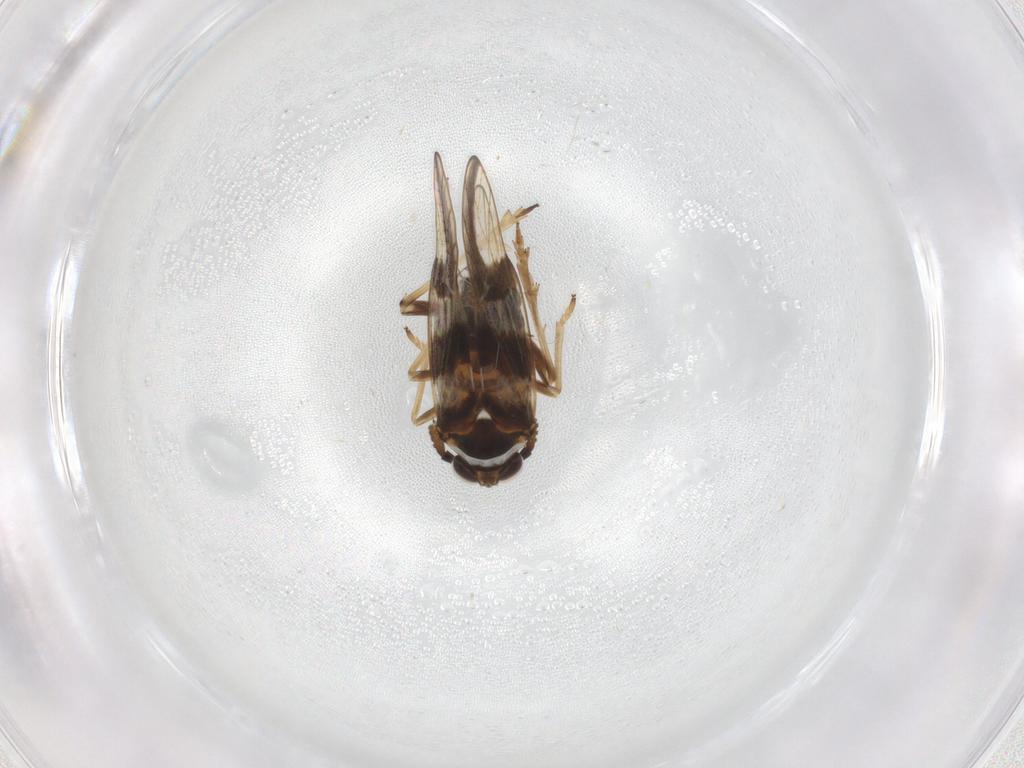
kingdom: Animalia
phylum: Arthropoda
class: Insecta
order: Hemiptera
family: Delphacidae
